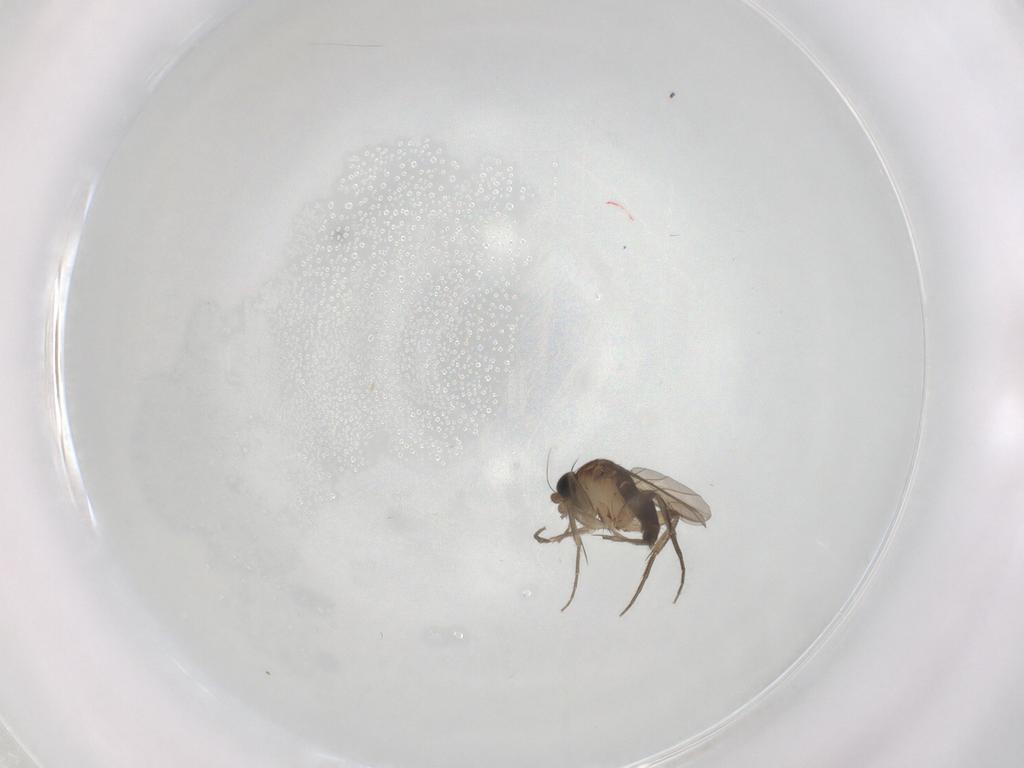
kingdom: Animalia
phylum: Arthropoda
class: Insecta
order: Diptera
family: Phoridae
